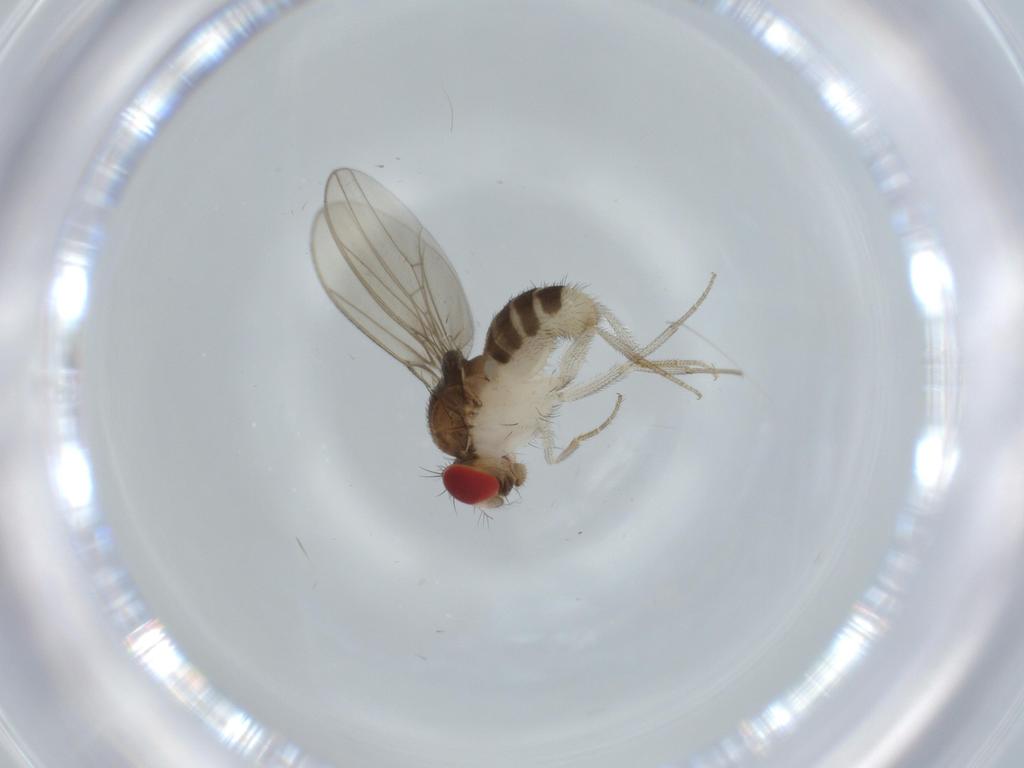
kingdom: Animalia
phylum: Arthropoda
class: Insecta
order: Diptera
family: Drosophilidae
